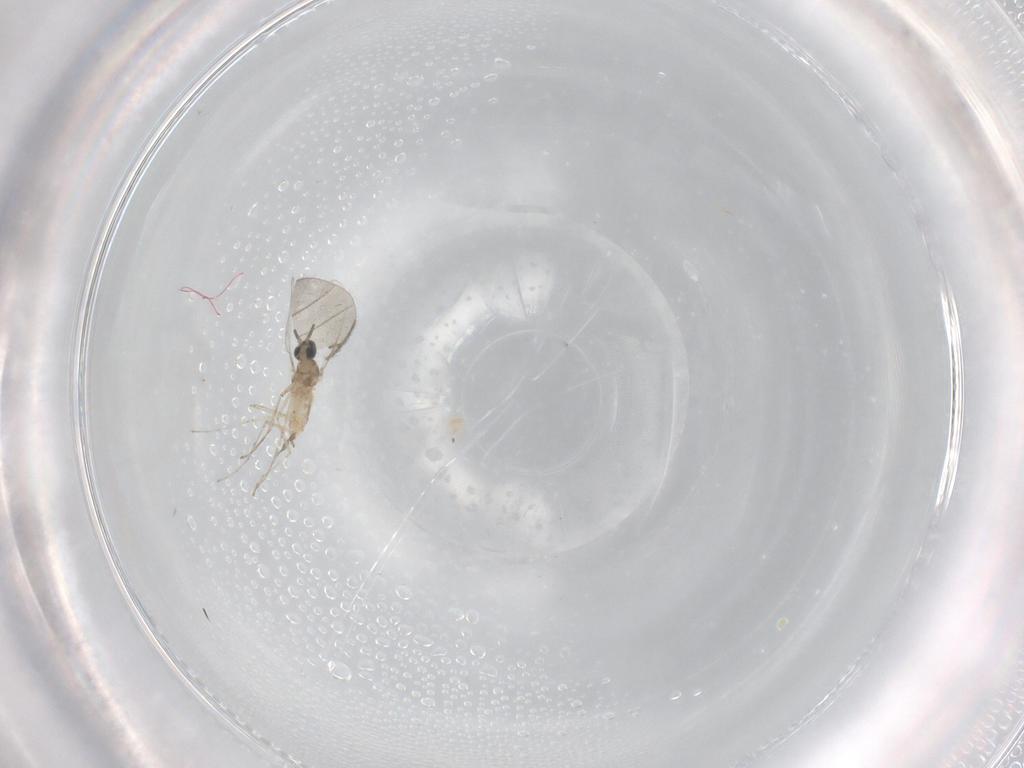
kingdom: Animalia
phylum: Arthropoda
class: Insecta
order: Diptera
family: Cecidomyiidae
